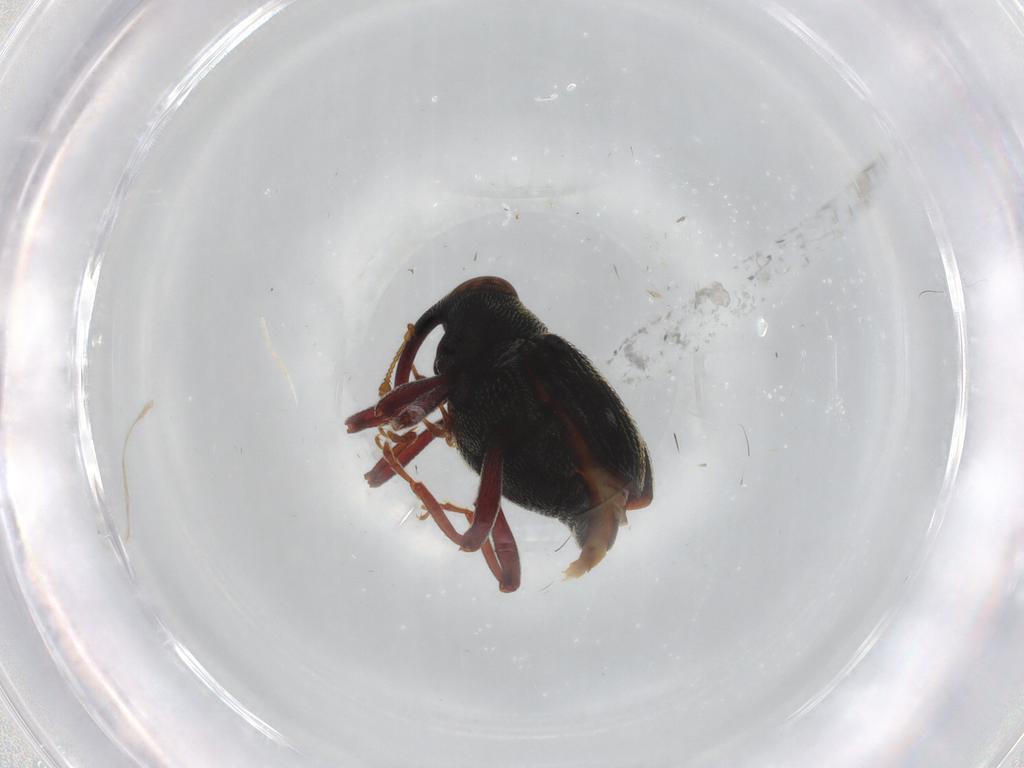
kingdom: Animalia
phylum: Arthropoda
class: Insecta
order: Coleoptera
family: Curculionidae
